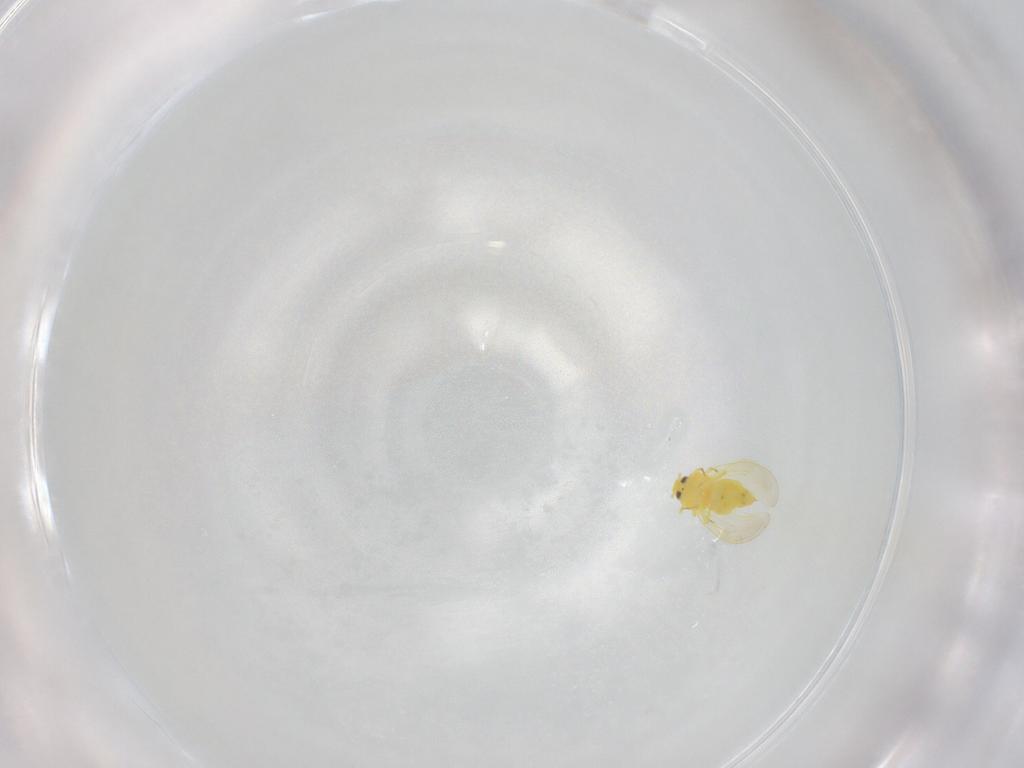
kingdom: Animalia
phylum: Arthropoda
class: Insecta
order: Hemiptera
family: Aleyrodidae
